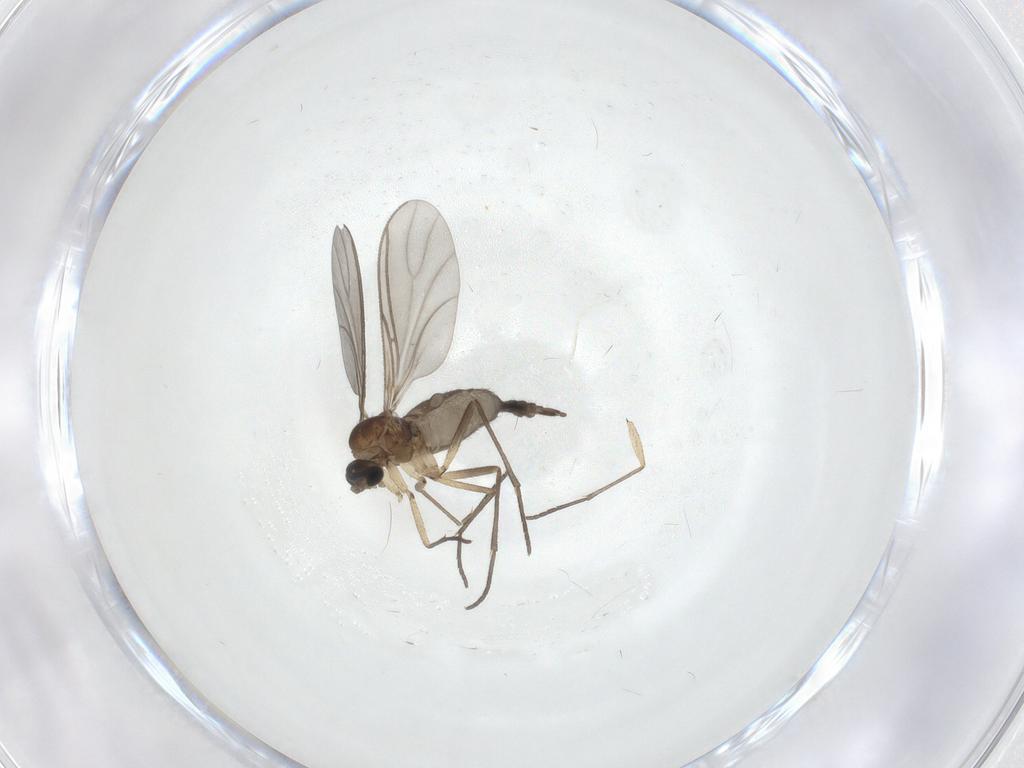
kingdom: Animalia
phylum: Arthropoda
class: Insecta
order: Diptera
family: Sciaridae
